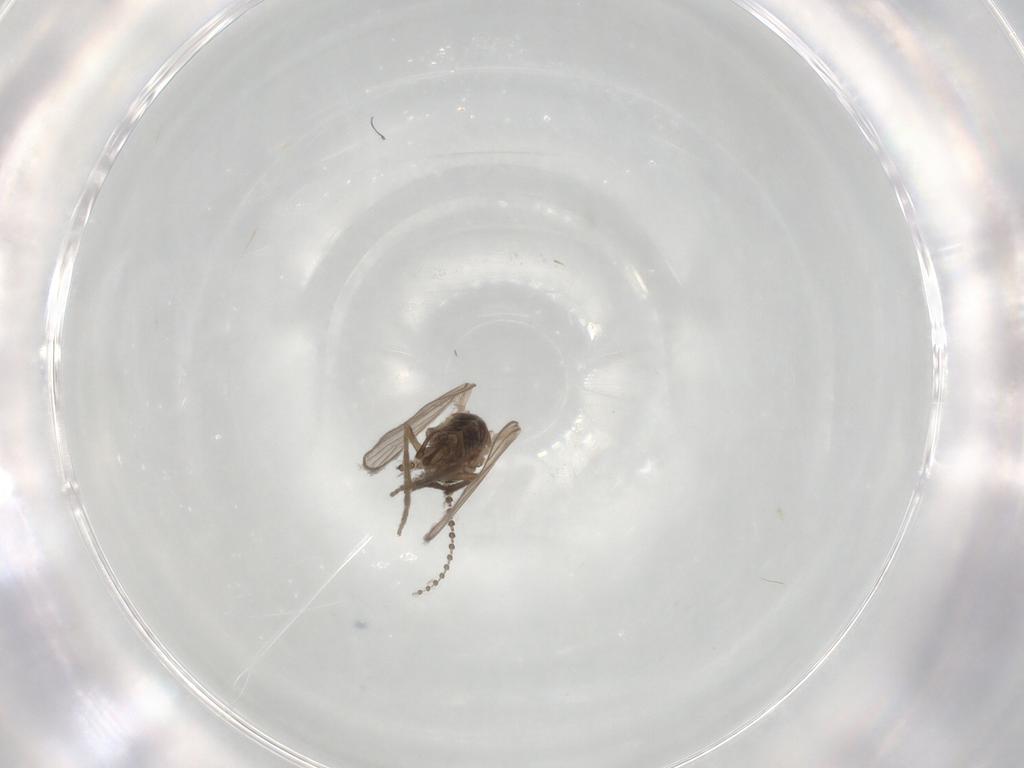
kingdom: Animalia
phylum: Arthropoda
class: Insecta
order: Diptera
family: Psychodidae
